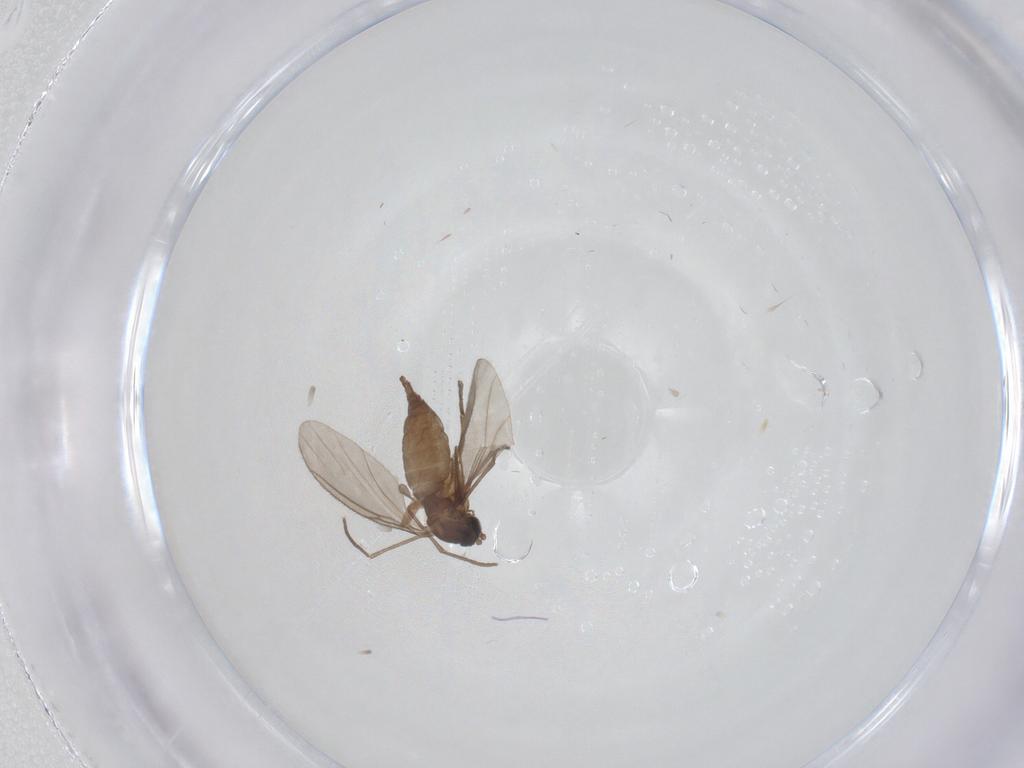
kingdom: Animalia
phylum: Arthropoda
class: Insecta
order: Diptera
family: Sciaridae
